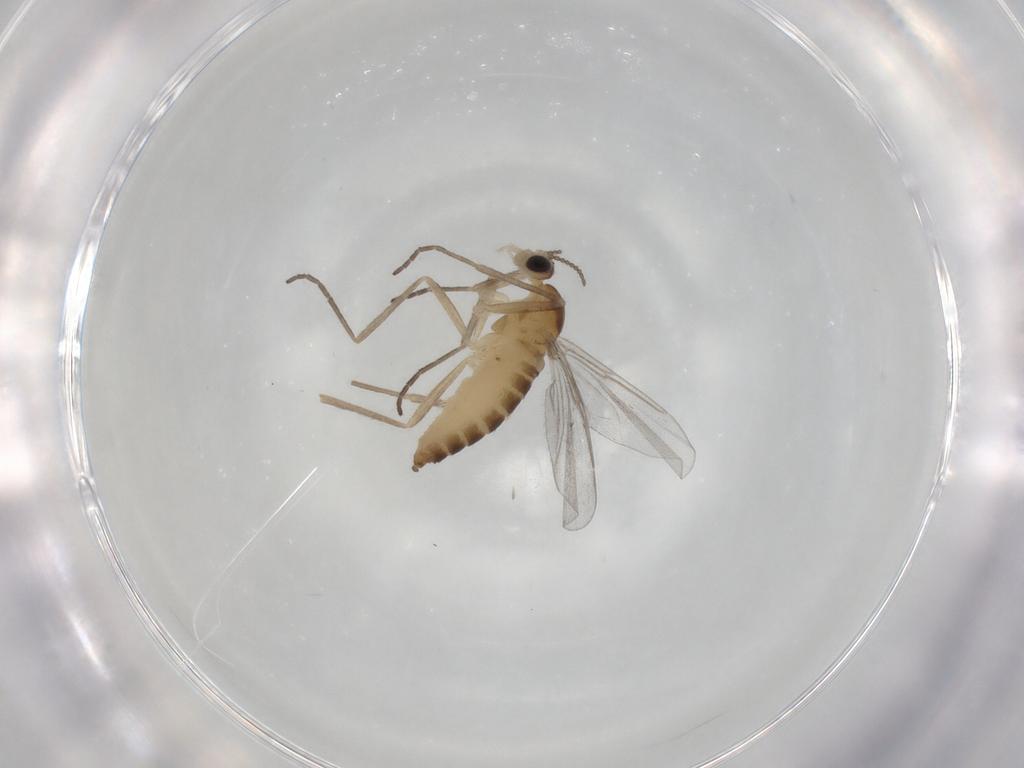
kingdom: Animalia
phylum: Arthropoda
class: Insecta
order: Diptera
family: Cecidomyiidae
